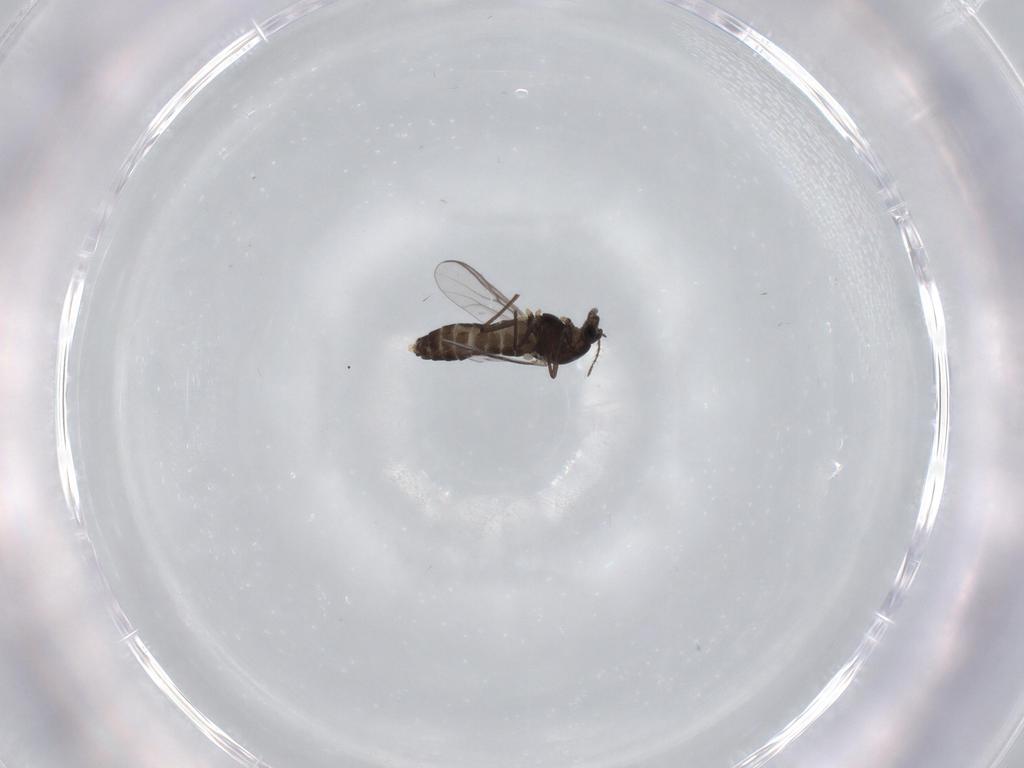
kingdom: Animalia
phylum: Arthropoda
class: Insecta
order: Diptera
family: Chironomidae
